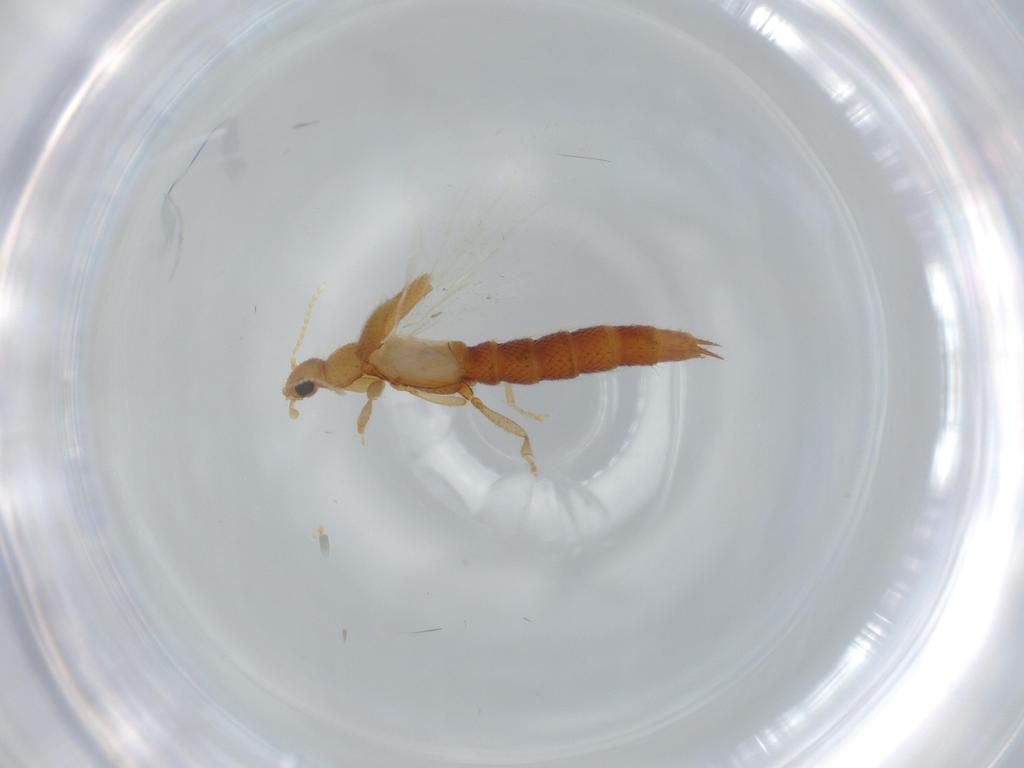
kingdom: Animalia
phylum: Arthropoda
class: Insecta
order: Coleoptera
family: Staphylinidae
